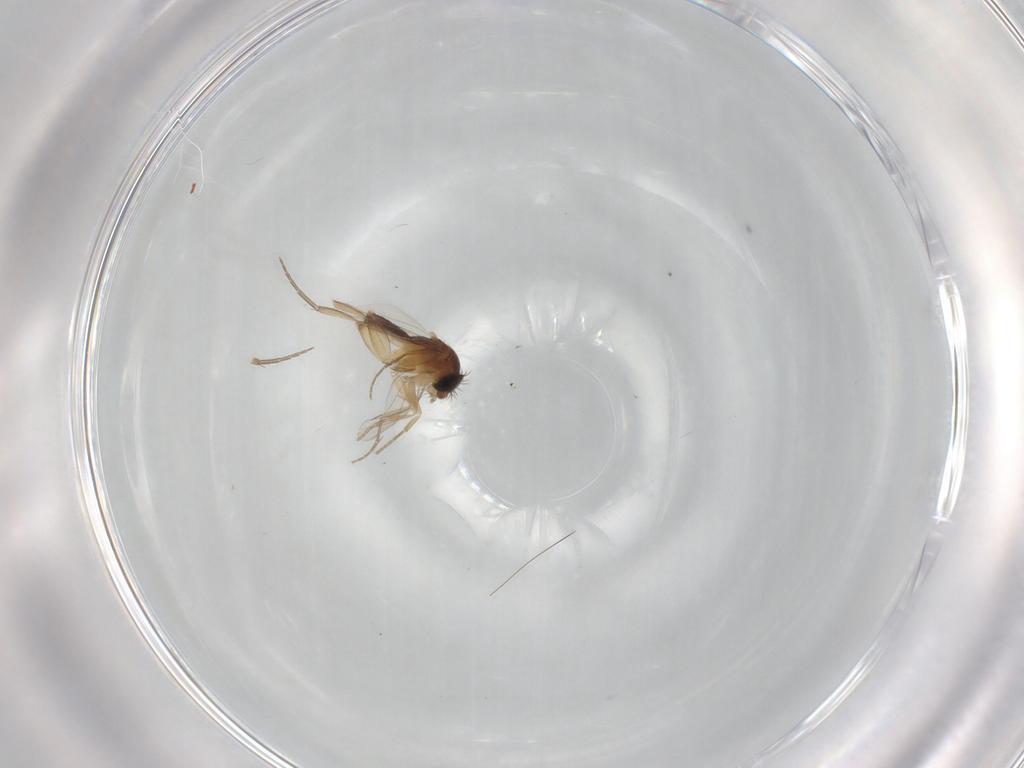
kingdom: Animalia
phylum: Arthropoda
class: Insecta
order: Diptera
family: Phoridae
